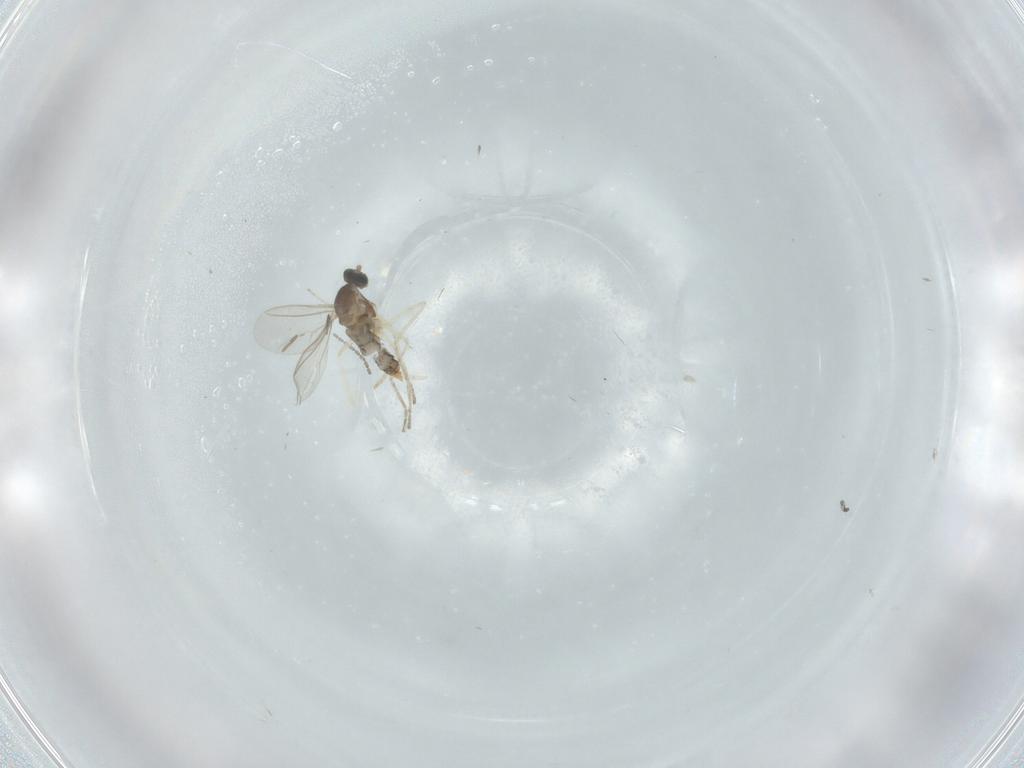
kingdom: Animalia
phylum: Arthropoda
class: Insecta
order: Diptera
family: Cecidomyiidae
